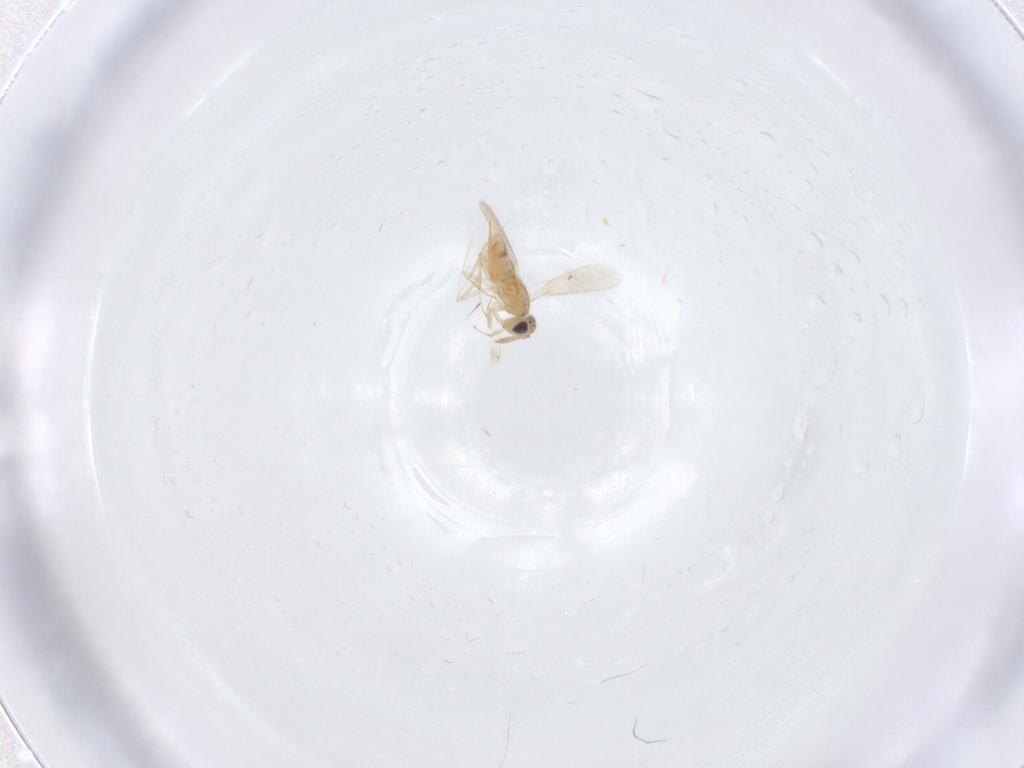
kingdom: Animalia
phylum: Arthropoda
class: Insecta
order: Hymenoptera
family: Aphelinidae
